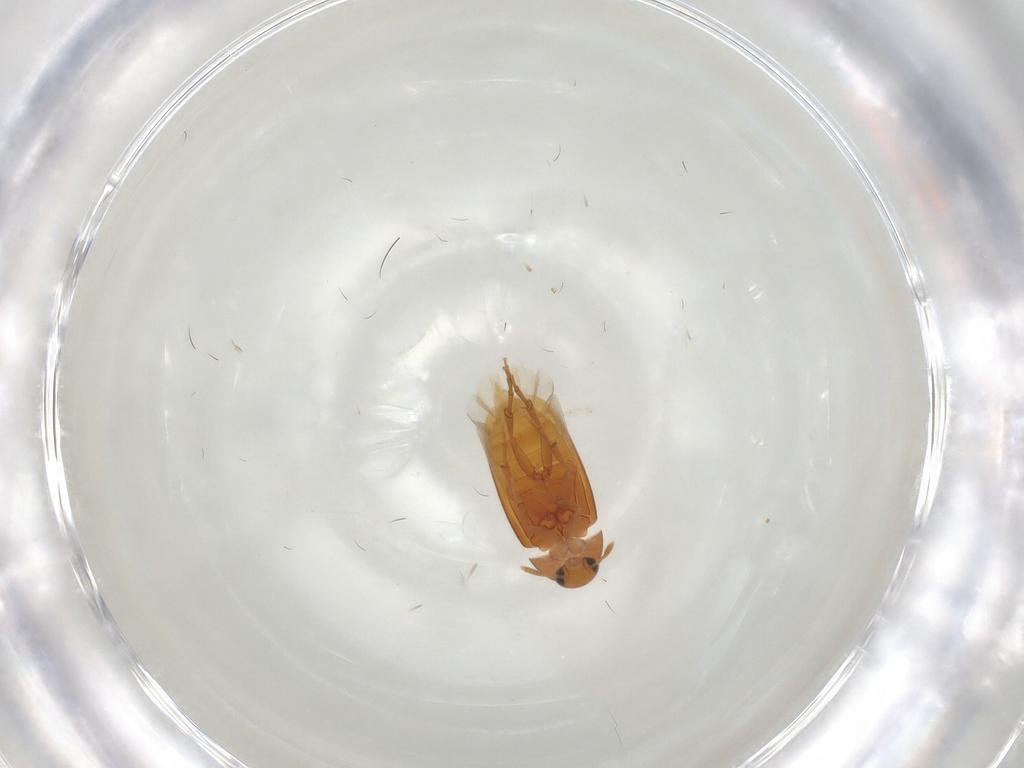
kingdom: Animalia
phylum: Arthropoda
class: Insecta
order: Coleoptera
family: Scraptiidae
